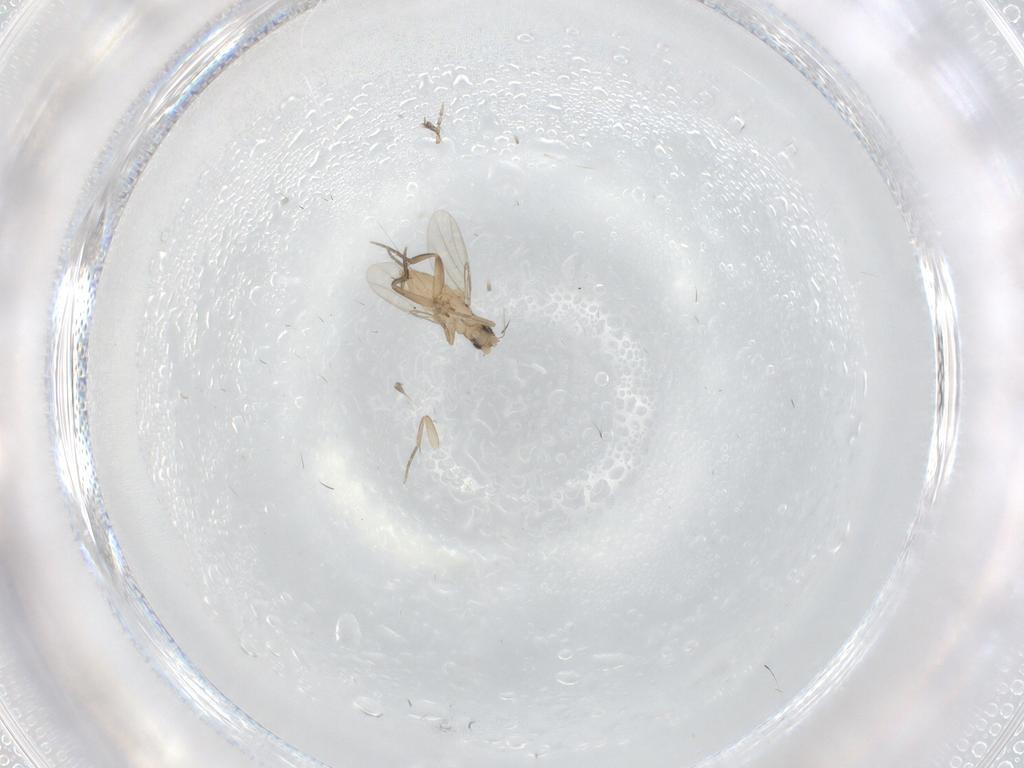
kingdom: Animalia
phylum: Arthropoda
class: Insecta
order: Diptera
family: Phoridae
